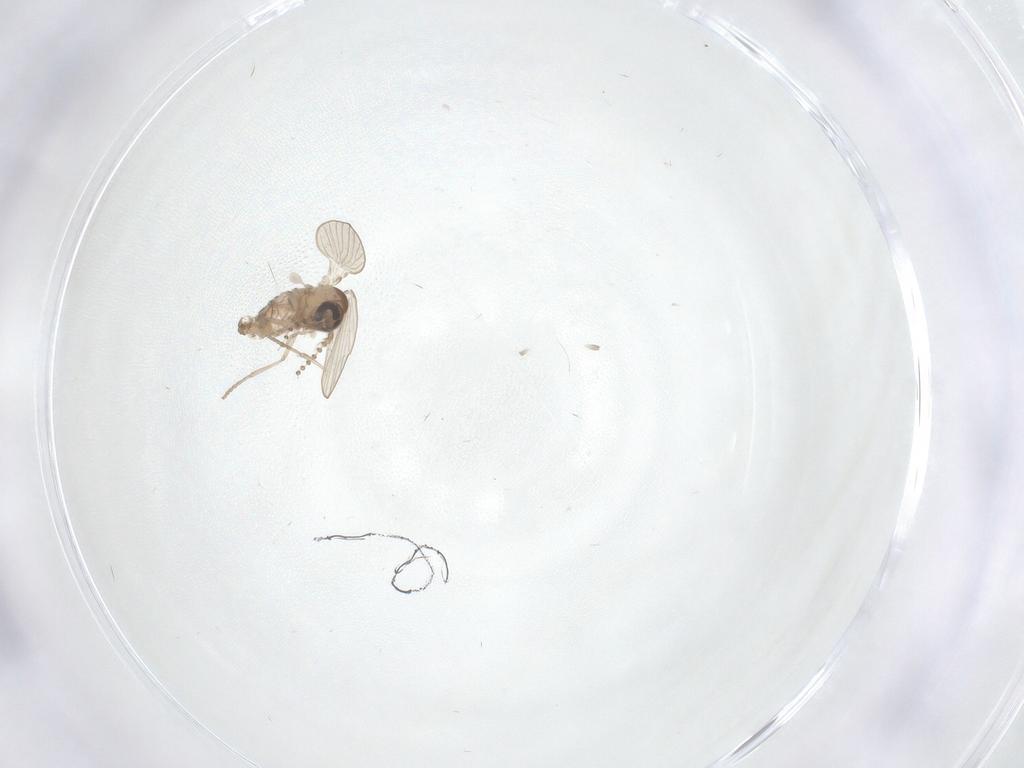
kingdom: Animalia
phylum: Arthropoda
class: Insecta
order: Diptera
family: Psychodidae
